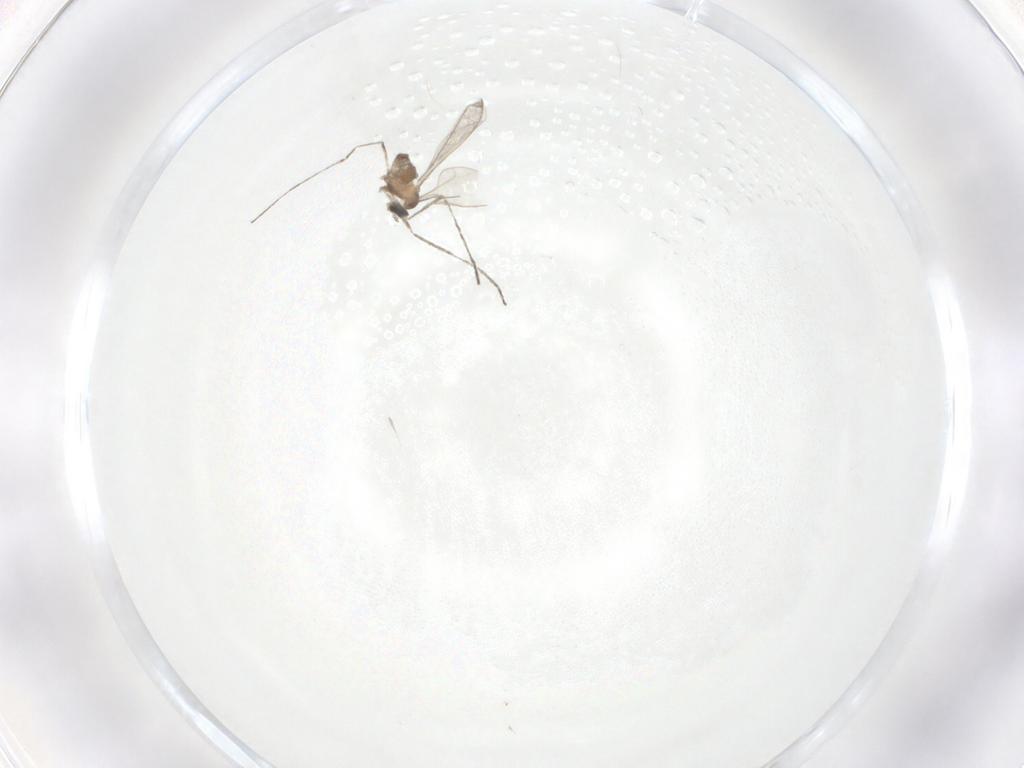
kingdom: Animalia
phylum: Arthropoda
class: Insecta
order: Diptera
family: Cecidomyiidae
